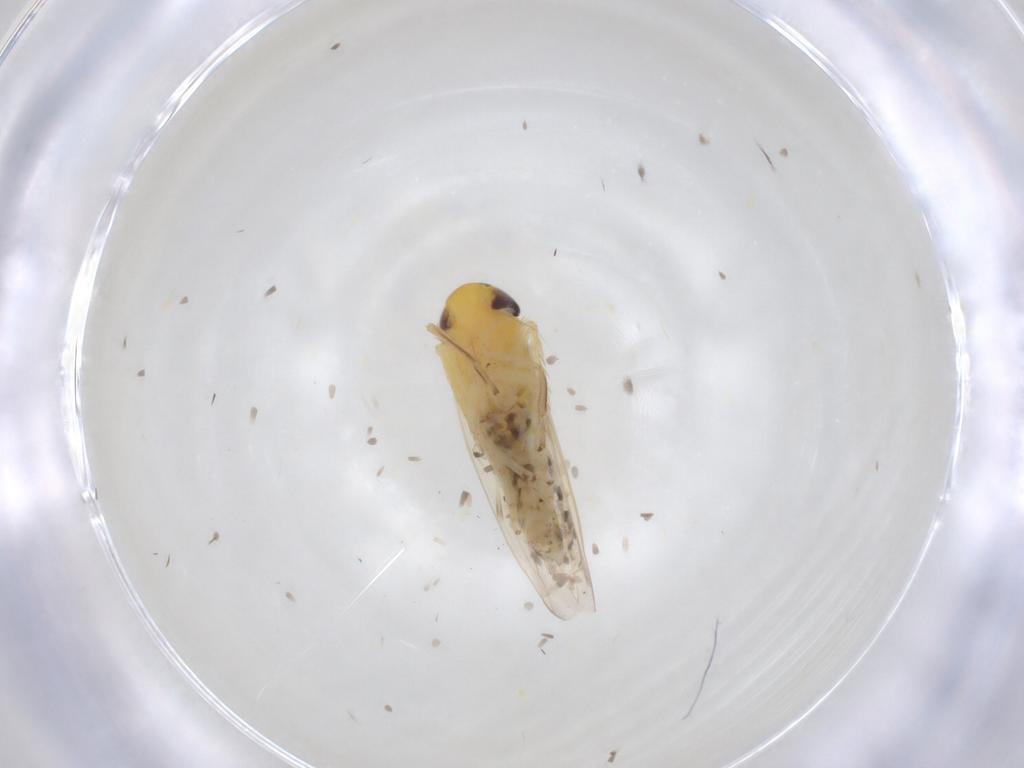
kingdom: Animalia
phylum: Arthropoda
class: Insecta
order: Hemiptera
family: Cicadellidae
